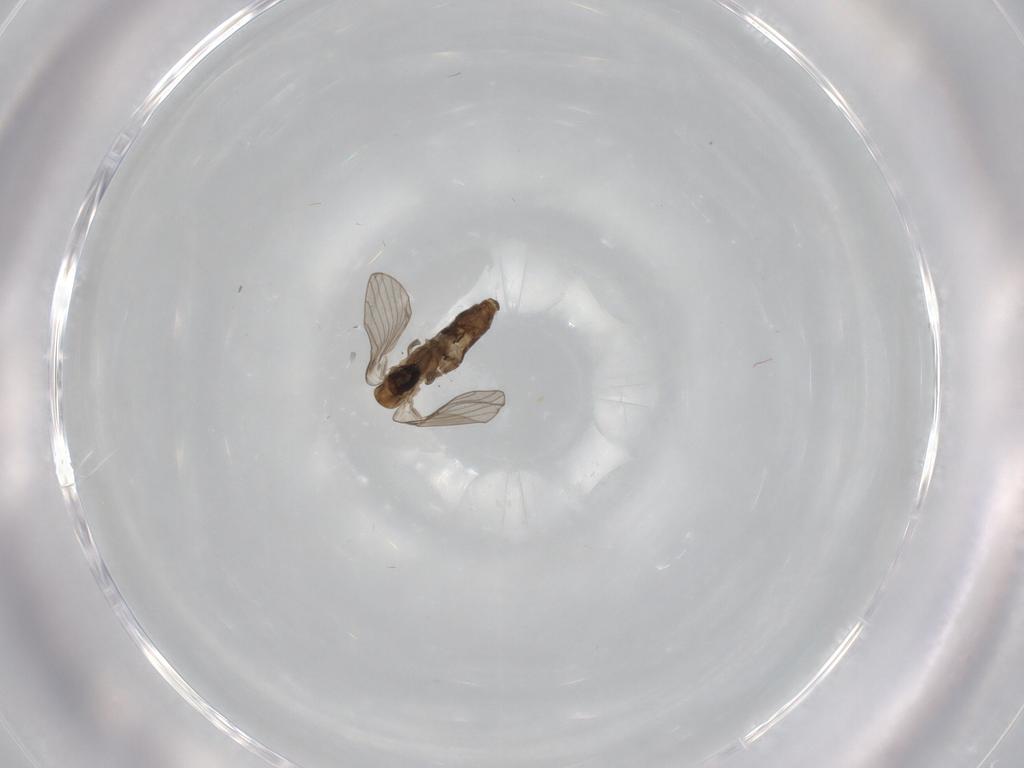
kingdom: Animalia
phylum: Arthropoda
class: Insecta
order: Diptera
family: Psychodidae
